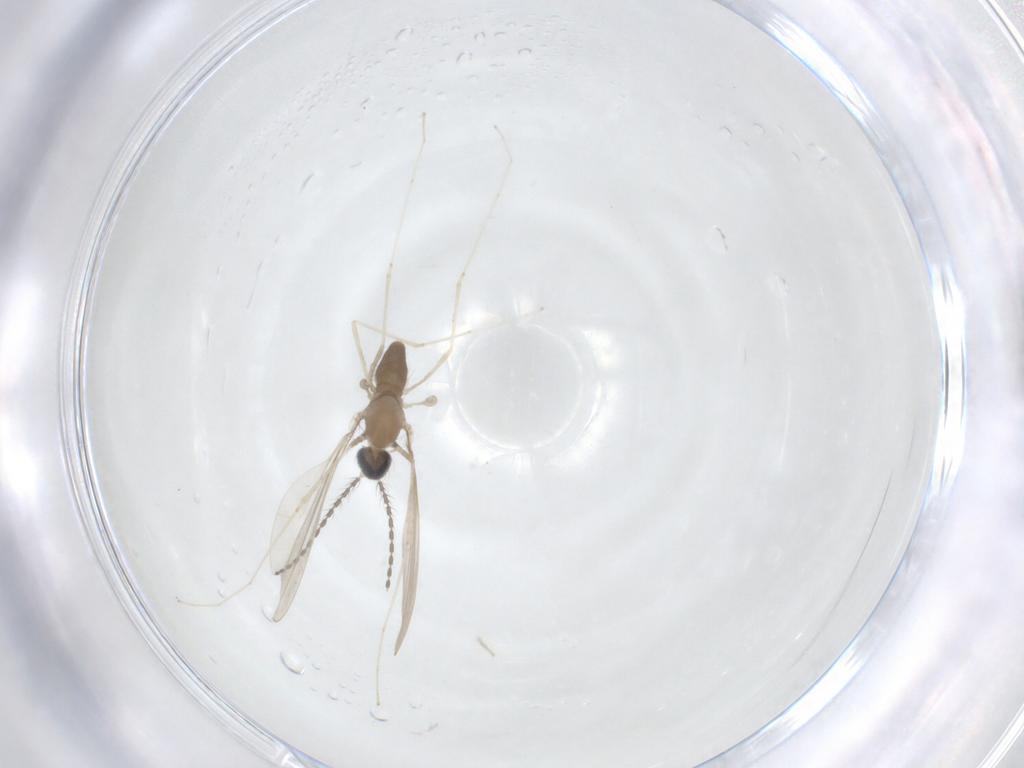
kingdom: Animalia
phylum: Arthropoda
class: Insecta
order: Diptera
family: Cecidomyiidae
